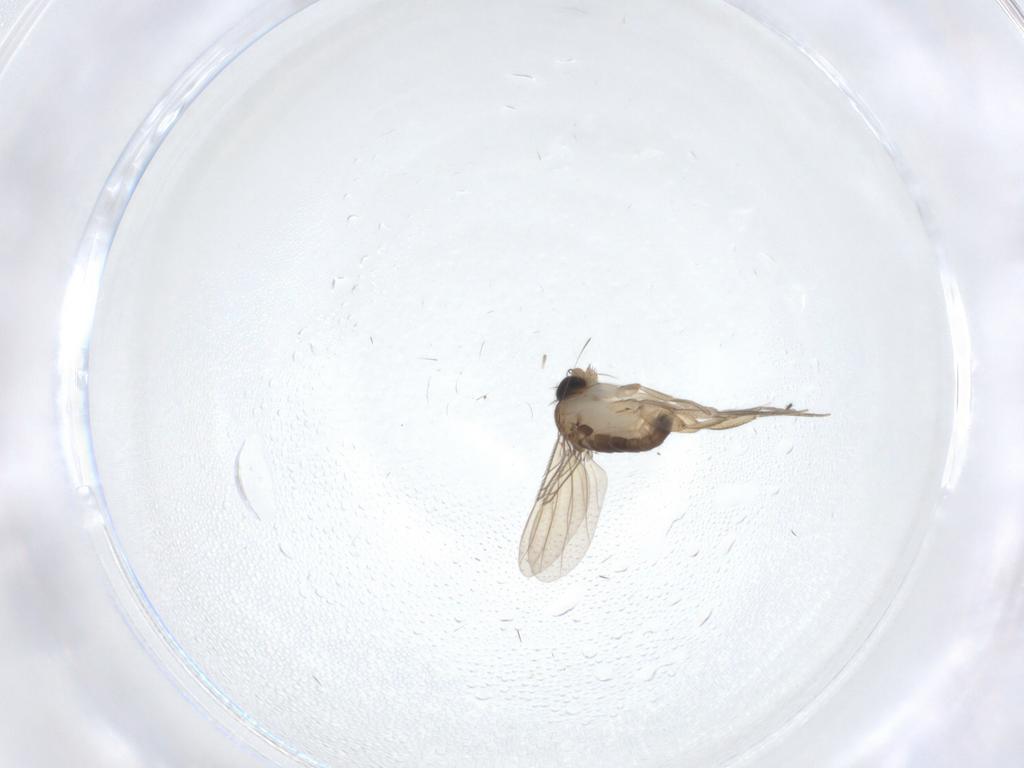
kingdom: Animalia
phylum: Arthropoda
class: Insecta
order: Diptera
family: Phoridae
